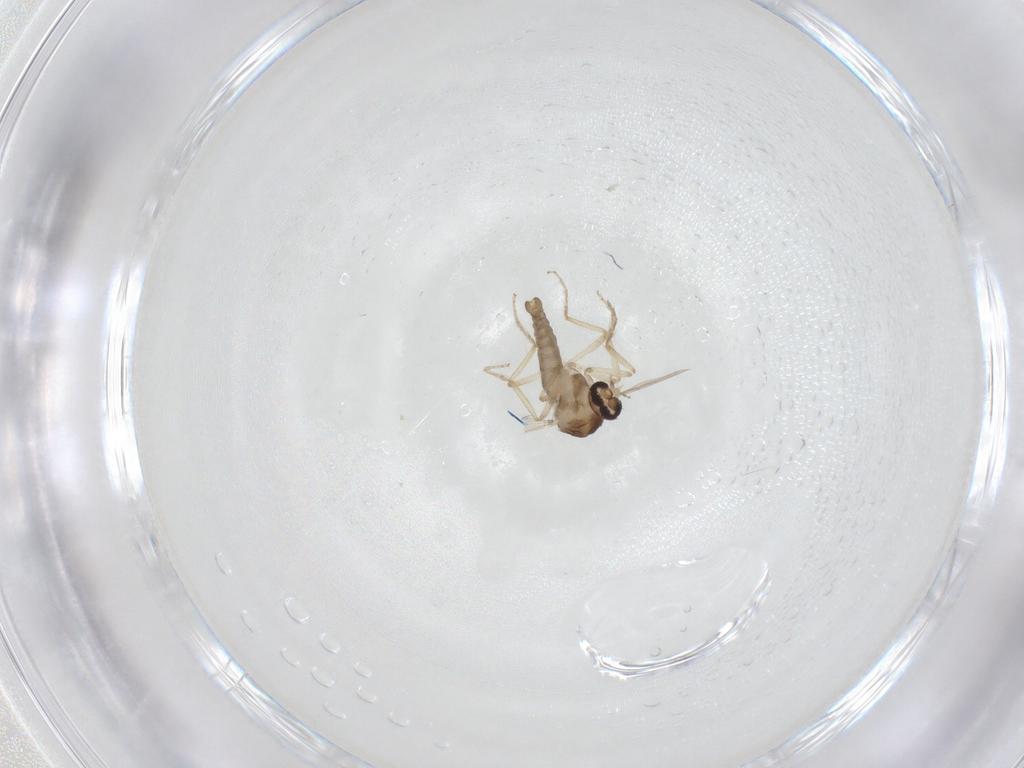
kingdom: Animalia
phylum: Arthropoda
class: Insecta
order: Diptera
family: Ceratopogonidae
